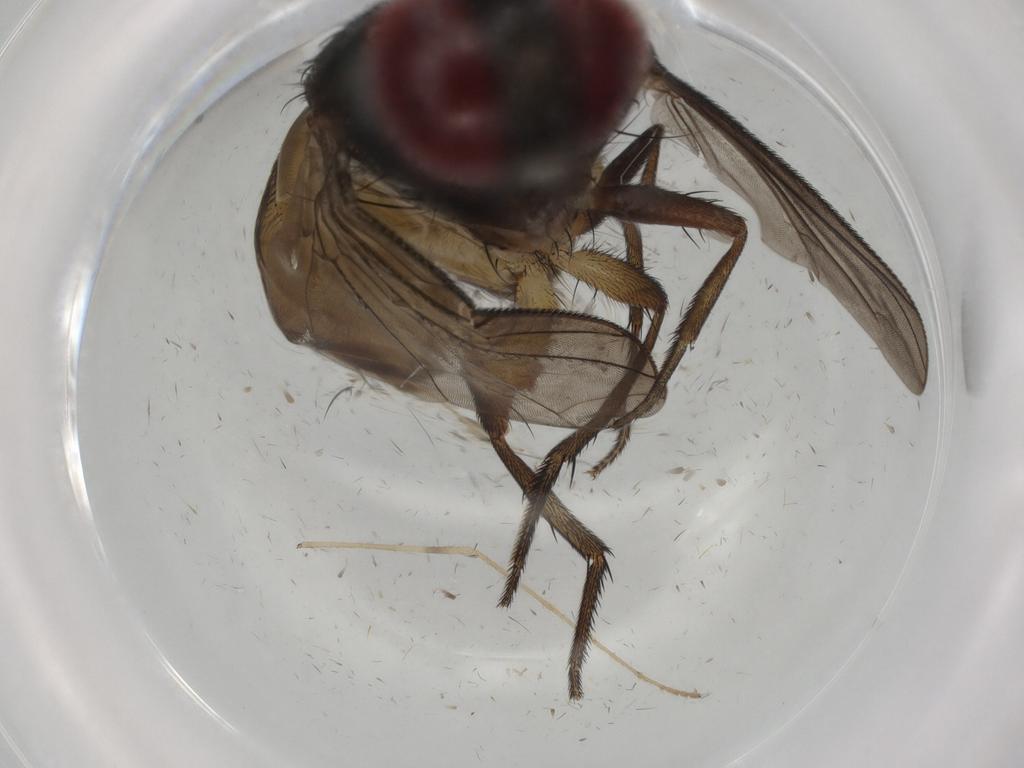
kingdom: Animalia
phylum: Arthropoda
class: Insecta
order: Diptera
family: Sarcophagidae
